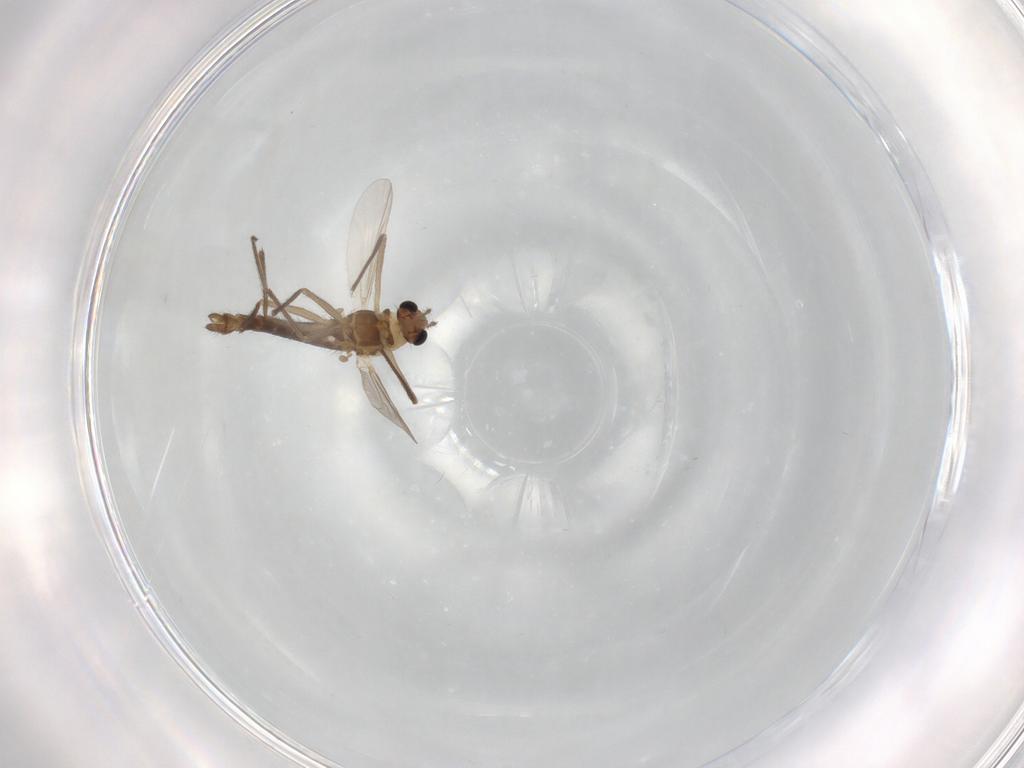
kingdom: Animalia
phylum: Arthropoda
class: Insecta
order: Diptera
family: Chironomidae
